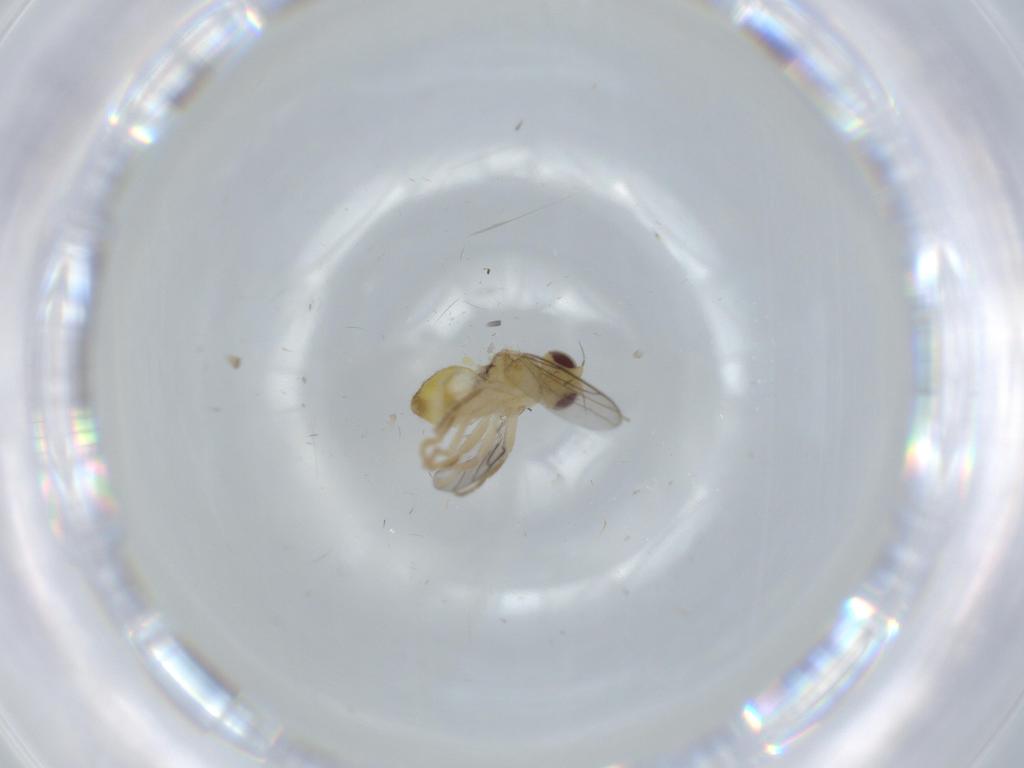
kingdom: Animalia
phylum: Arthropoda
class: Insecta
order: Diptera
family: Chloropidae
